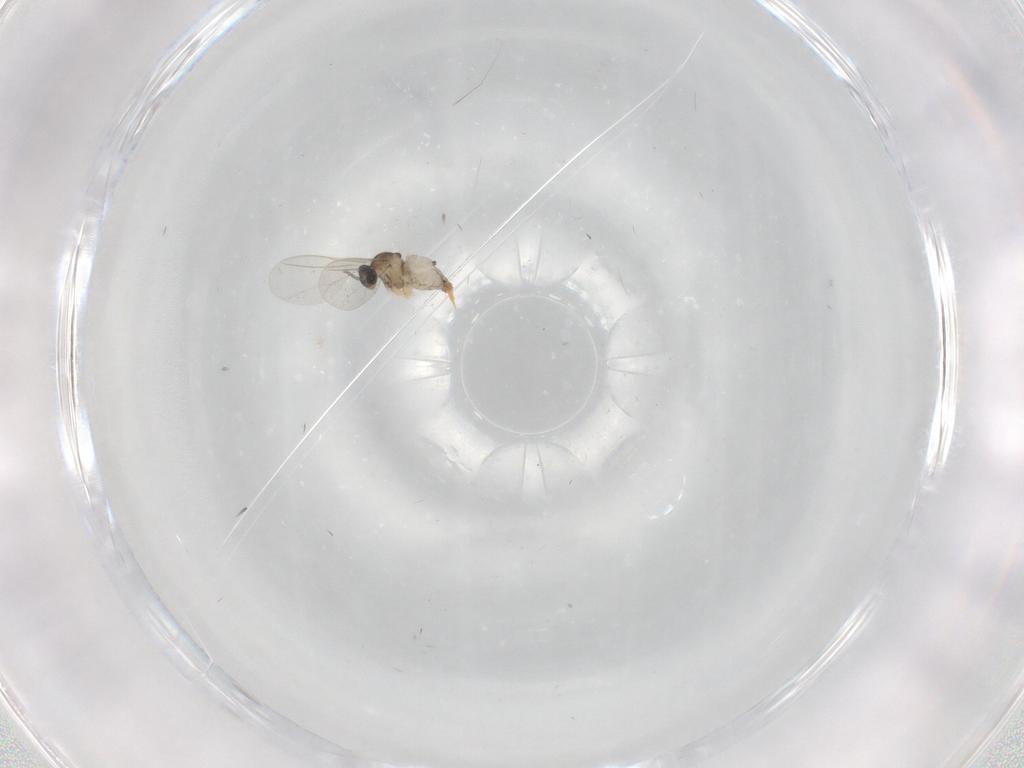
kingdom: Animalia
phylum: Arthropoda
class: Insecta
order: Diptera
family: Cecidomyiidae
